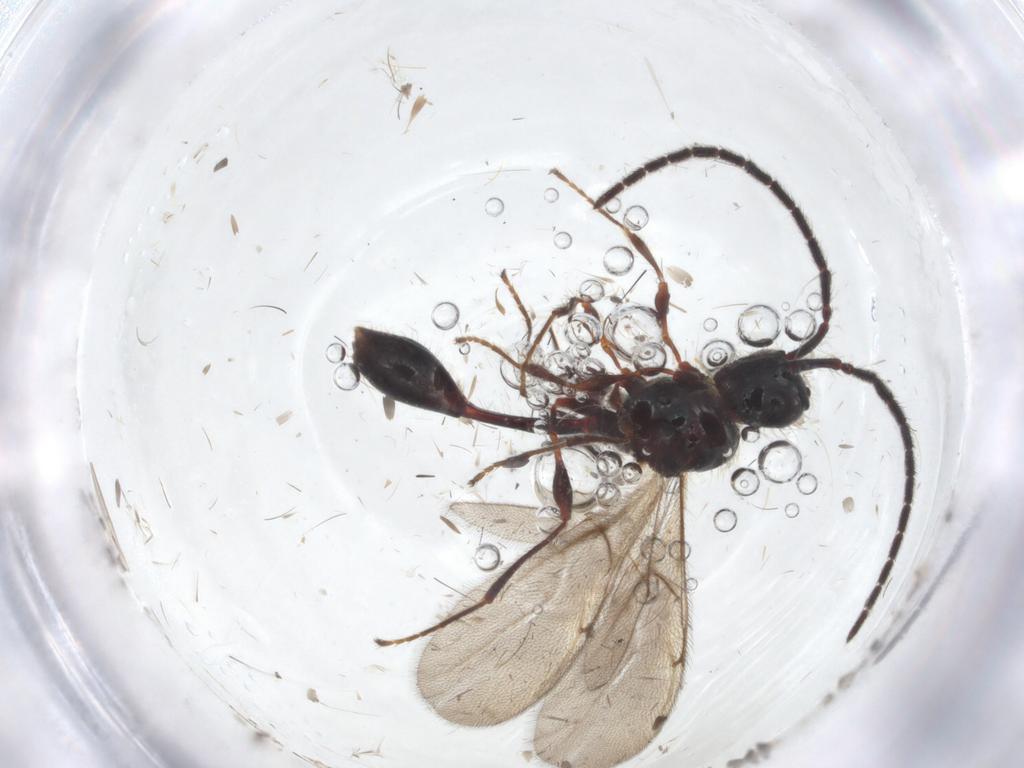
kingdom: Animalia
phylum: Arthropoda
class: Insecta
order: Hymenoptera
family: Diapriidae
